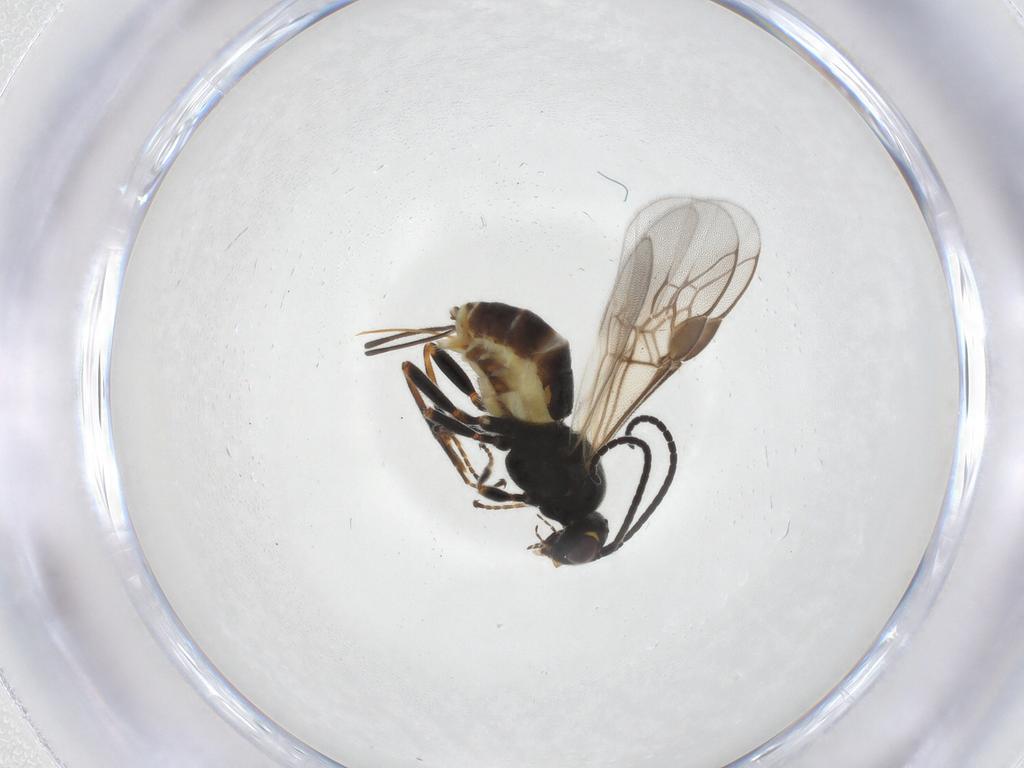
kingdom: Animalia
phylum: Arthropoda
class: Insecta
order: Hymenoptera
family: Braconidae
